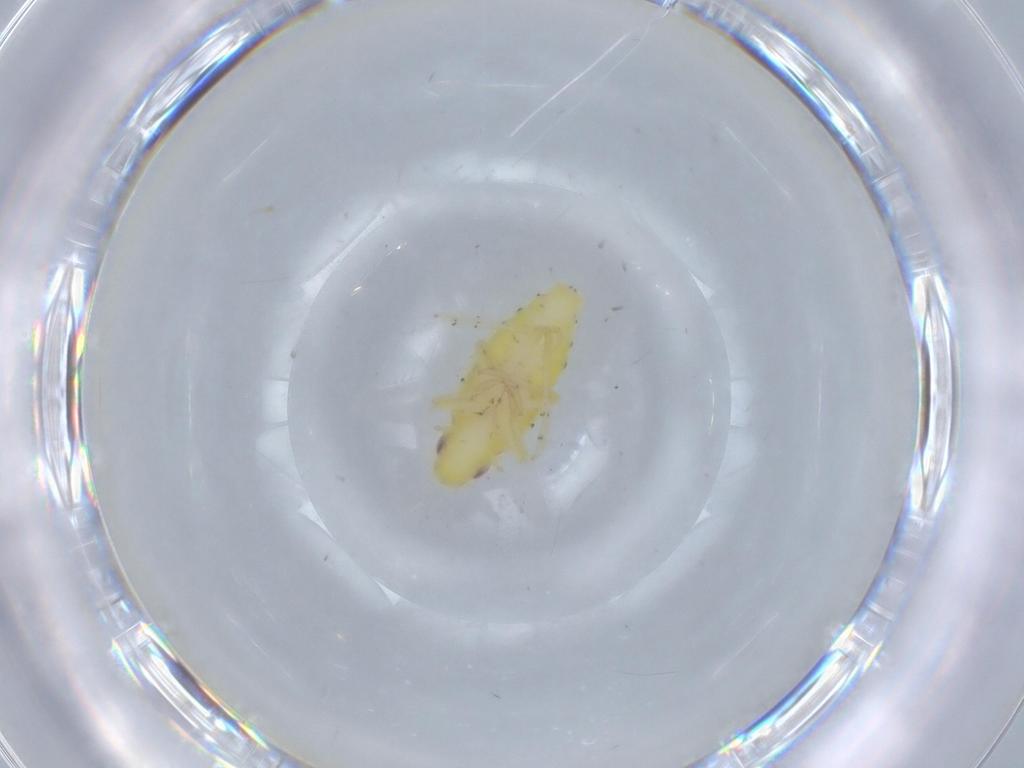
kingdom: Animalia
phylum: Arthropoda
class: Insecta
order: Hemiptera
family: Tropiduchidae
